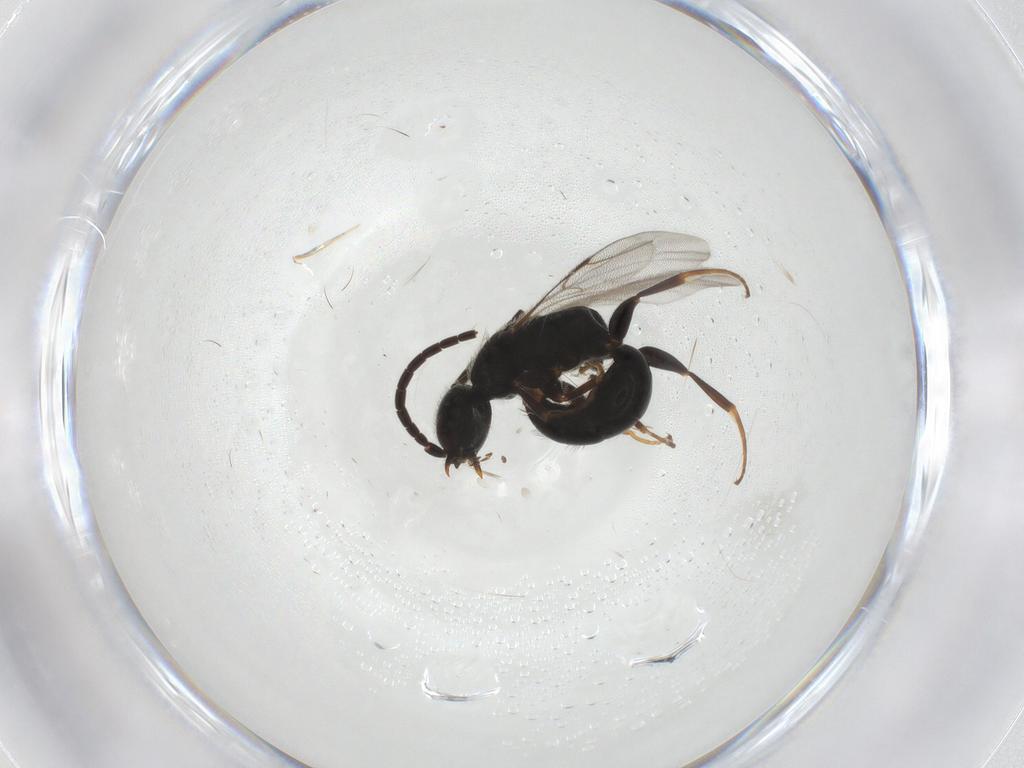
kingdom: Animalia
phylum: Arthropoda
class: Insecta
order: Hymenoptera
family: Bethylidae
